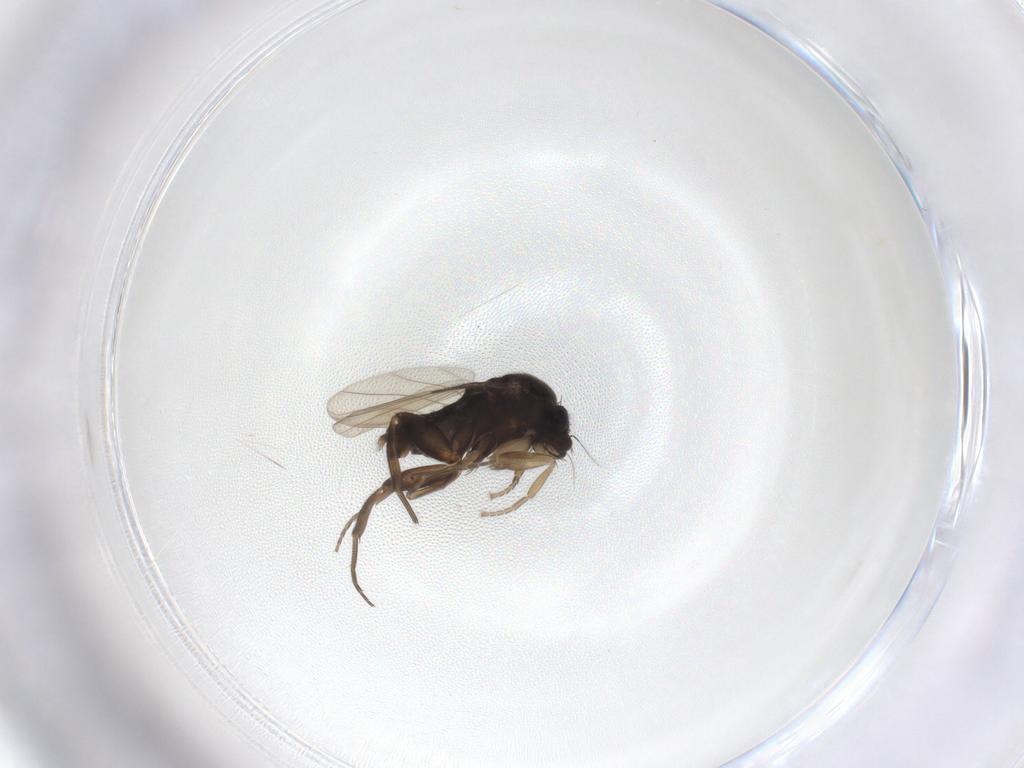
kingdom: Animalia
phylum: Arthropoda
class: Insecta
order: Diptera
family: Phoridae
